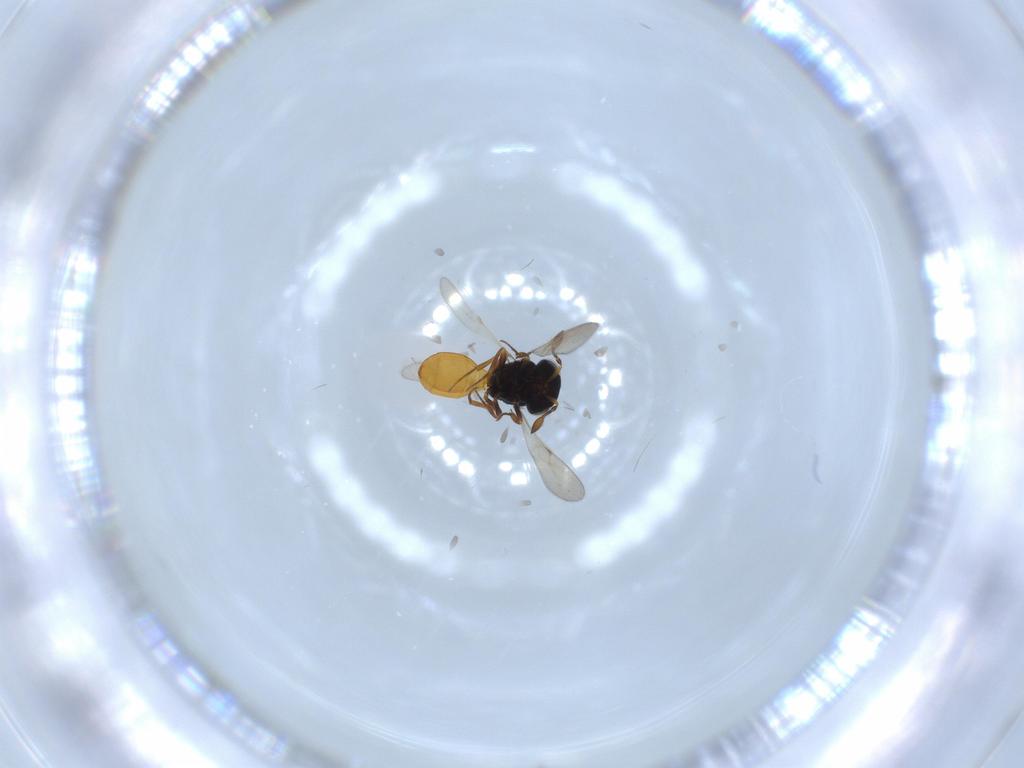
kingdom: Animalia
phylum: Arthropoda
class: Insecta
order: Hymenoptera
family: Scelionidae
